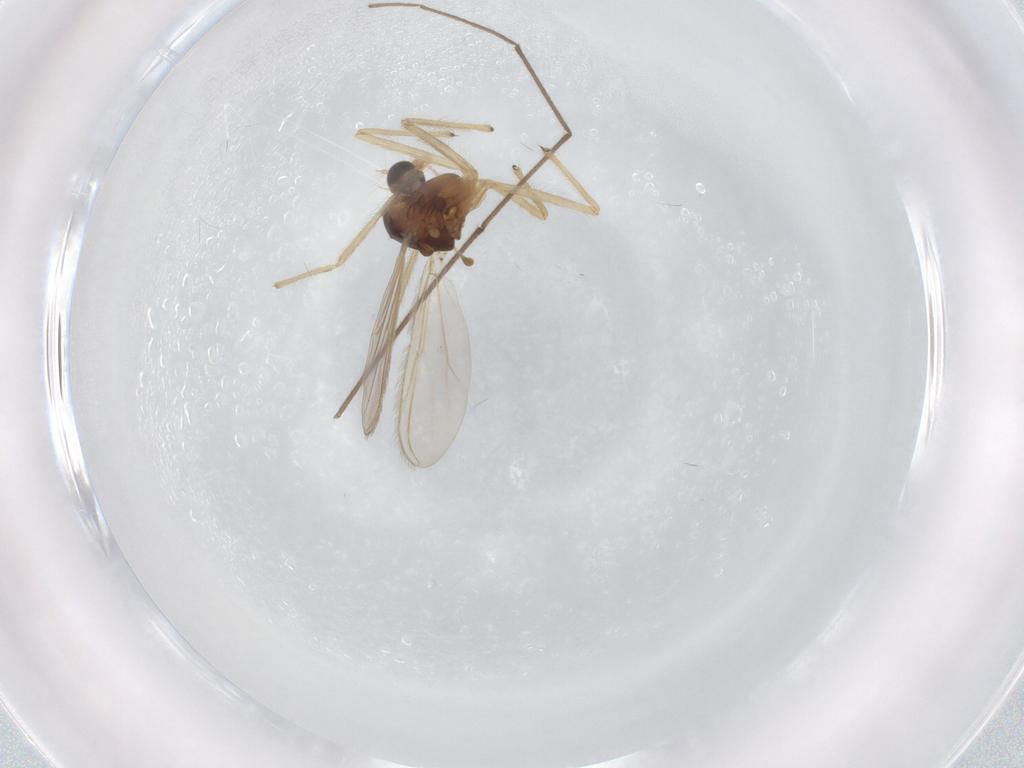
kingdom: Animalia
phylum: Arthropoda
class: Insecta
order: Diptera
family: Chironomidae
